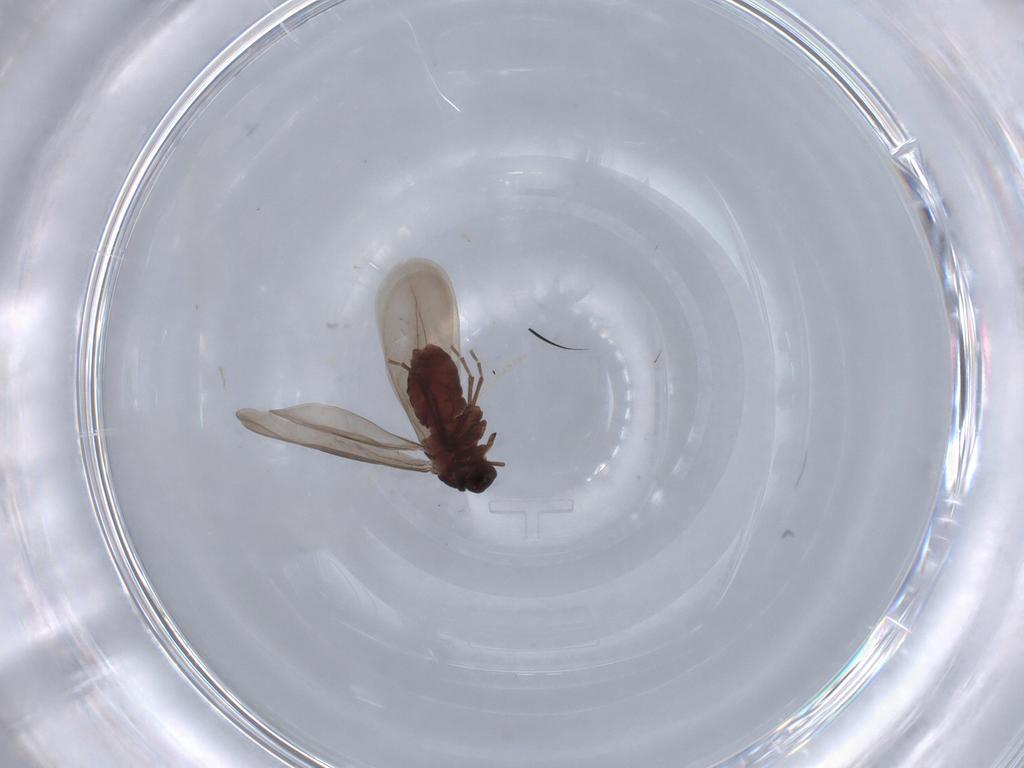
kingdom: Animalia
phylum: Arthropoda
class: Insecta
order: Hemiptera
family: Aleyrodidae
